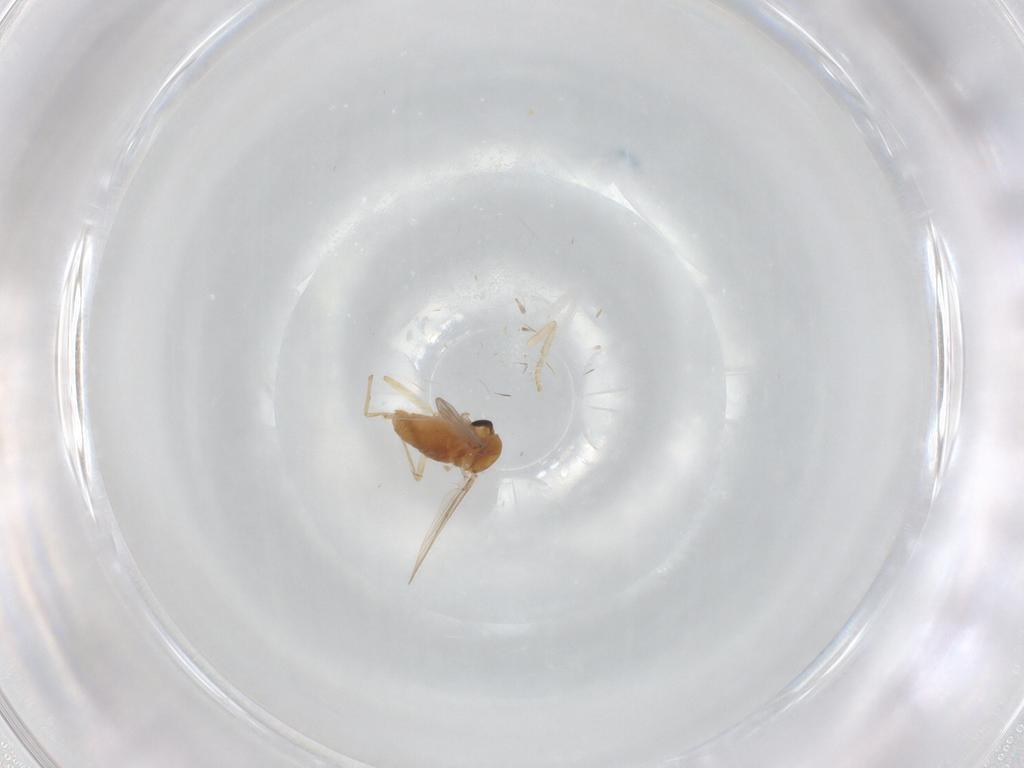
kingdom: Animalia
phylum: Arthropoda
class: Insecta
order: Diptera
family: Chironomidae
